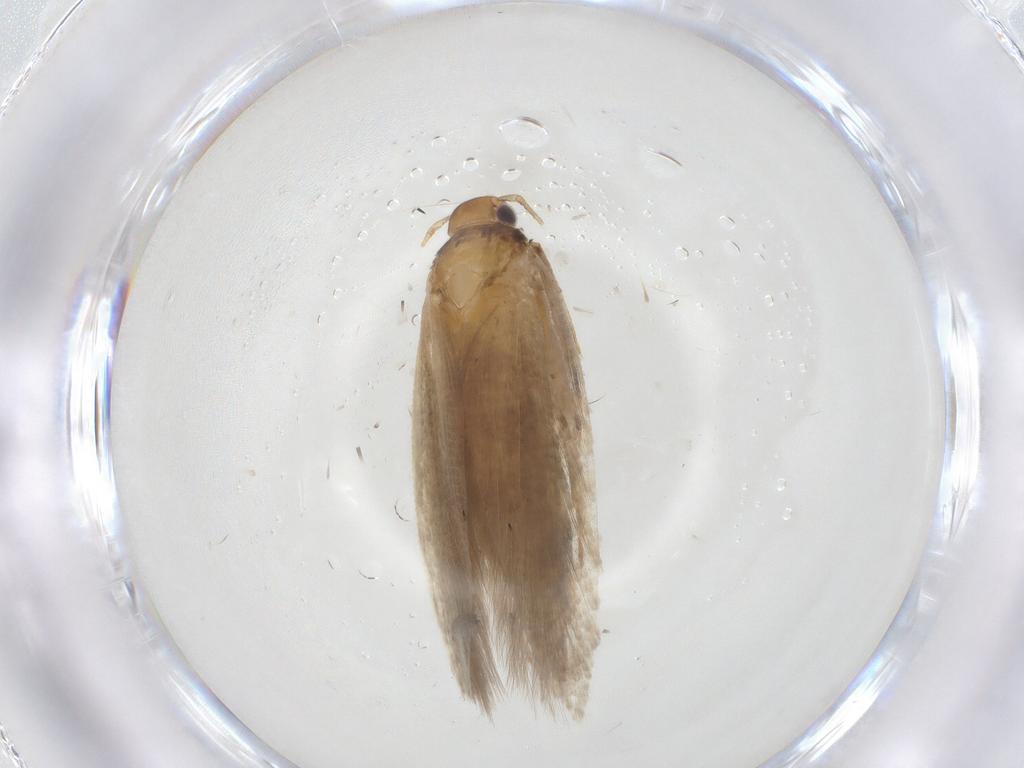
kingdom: Animalia
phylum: Arthropoda
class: Insecta
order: Lepidoptera
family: Gelechiidae
